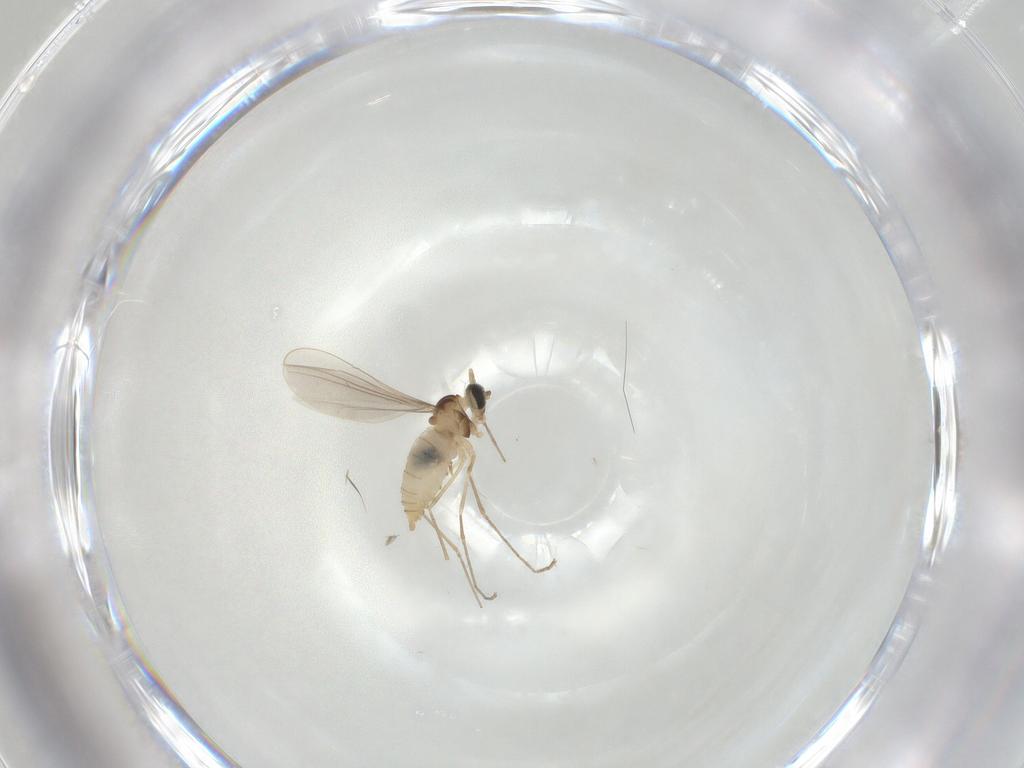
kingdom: Animalia
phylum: Arthropoda
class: Insecta
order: Diptera
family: Cecidomyiidae
